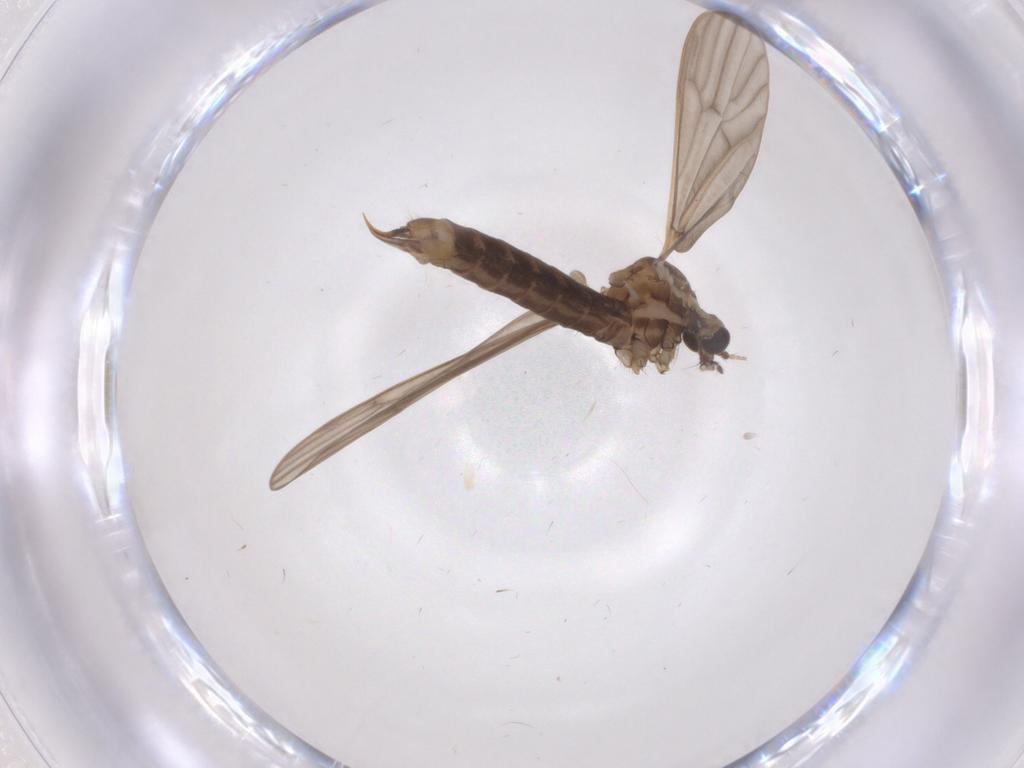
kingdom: Animalia
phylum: Arthropoda
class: Insecta
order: Diptera
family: Limoniidae
